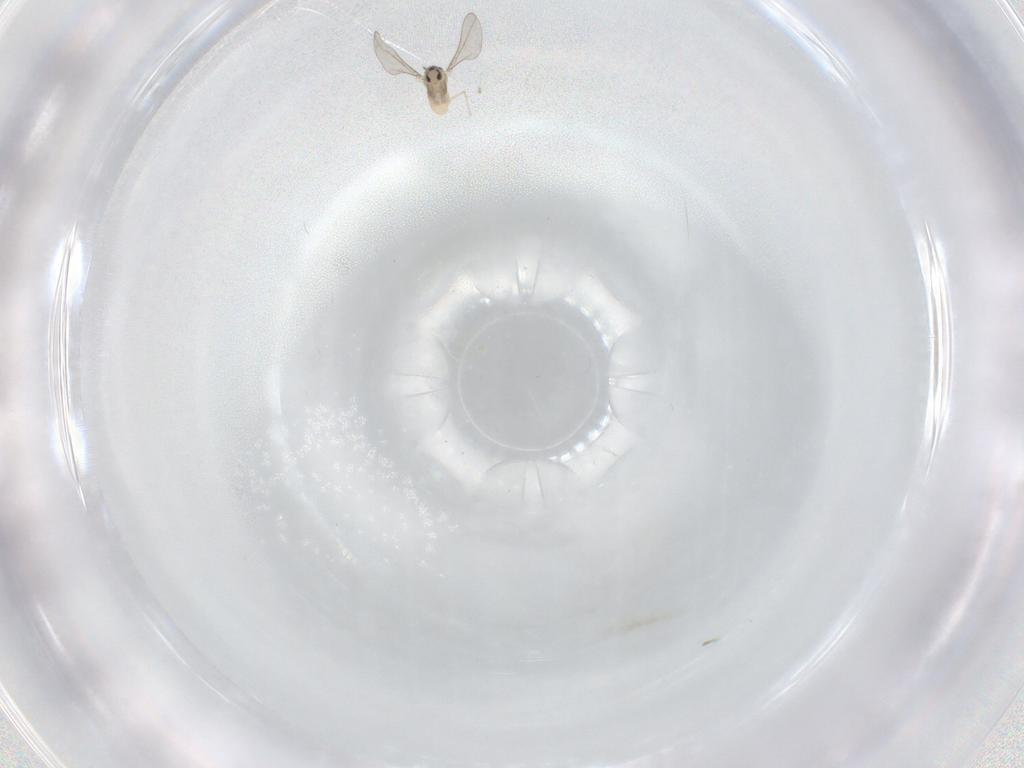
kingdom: Animalia
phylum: Arthropoda
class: Insecta
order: Diptera
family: Cecidomyiidae
